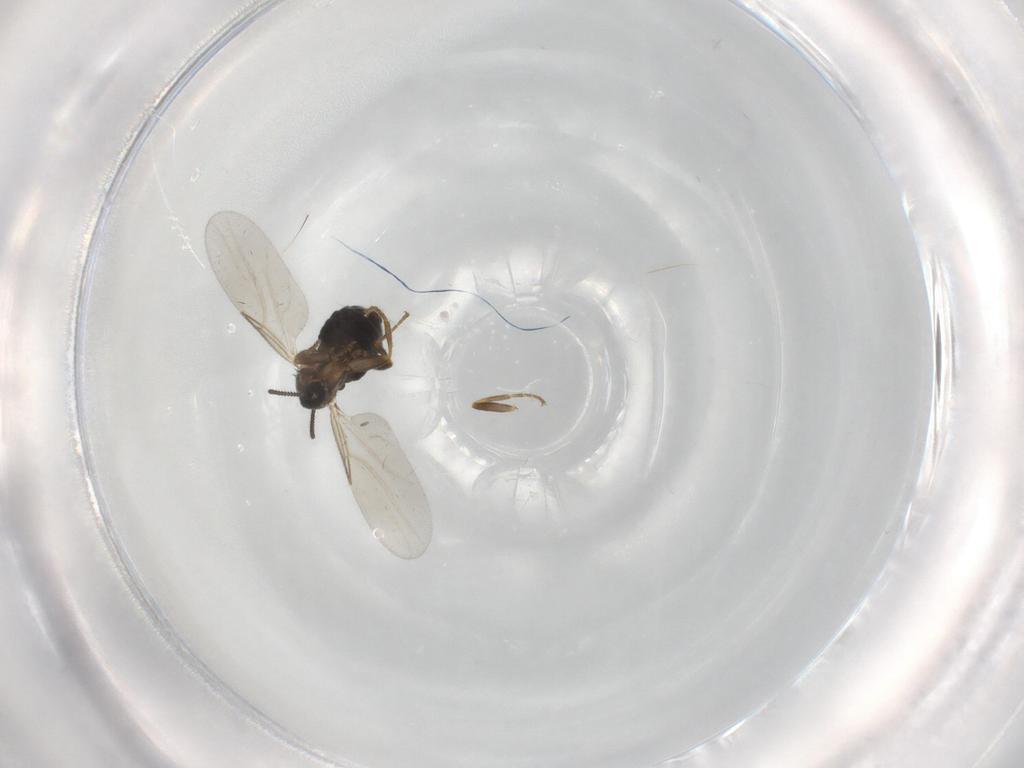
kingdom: Animalia
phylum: Arthropoda
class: Insecta
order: Diptera
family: Scatopsidae
